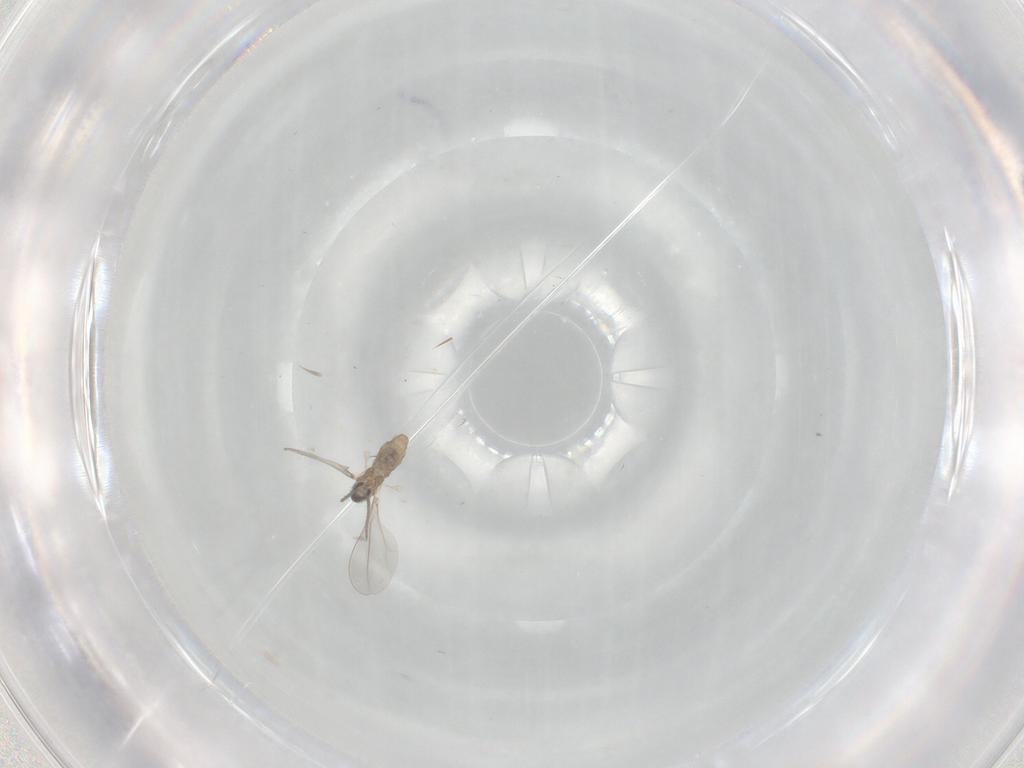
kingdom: Animalia
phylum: Arthropoda
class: Insecta
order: Diptera
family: Cecidomyiidae
